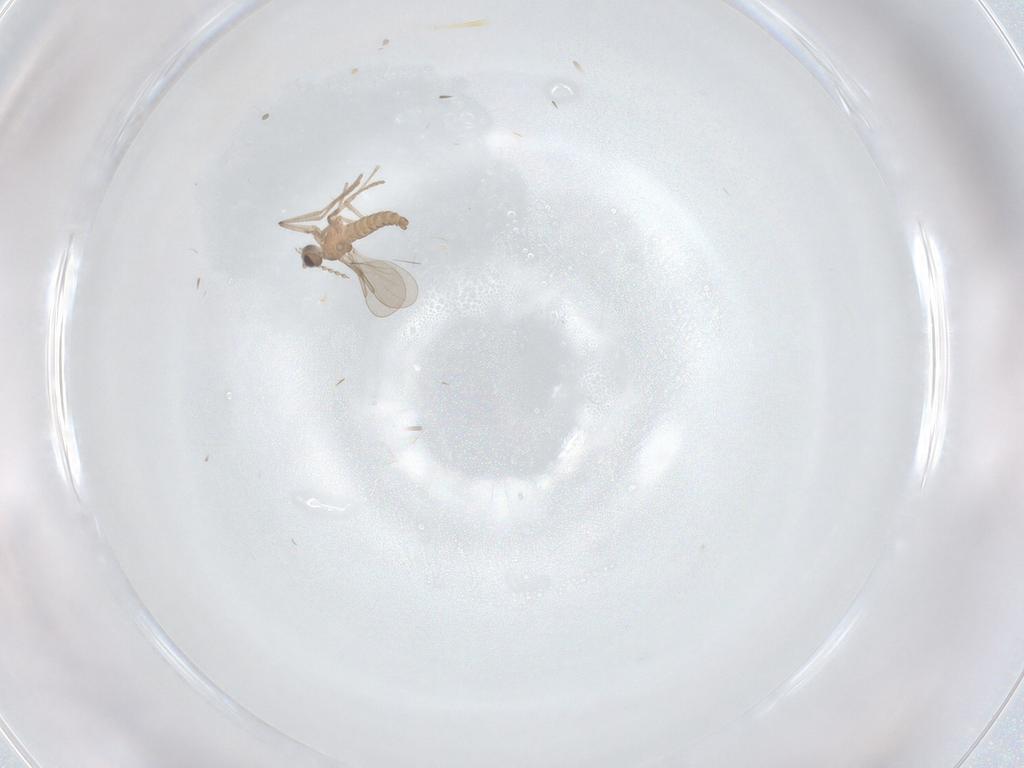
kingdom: Animalia
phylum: Arthropoda
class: Insecta
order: Diptera
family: Cecidomyiidae
